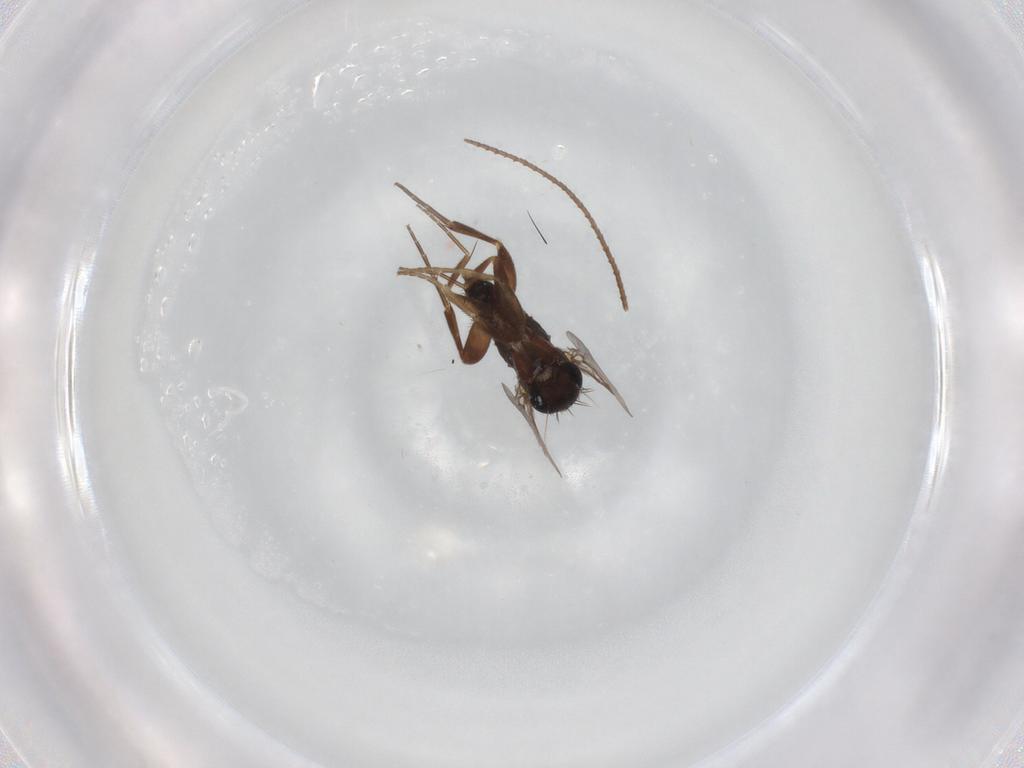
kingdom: Animalia
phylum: Arthropoda
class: Insecta
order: Diptera
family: Phoridae
